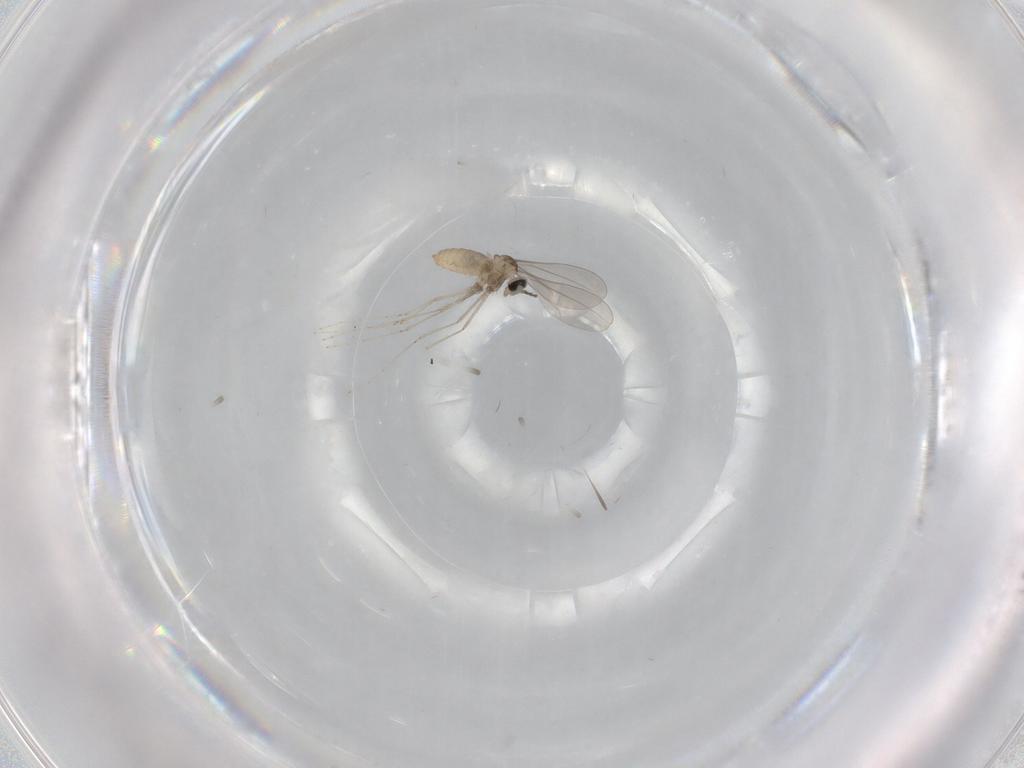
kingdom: Animalia
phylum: Arthropoda
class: Insecta
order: Diptera
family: Cecidomyiidae
